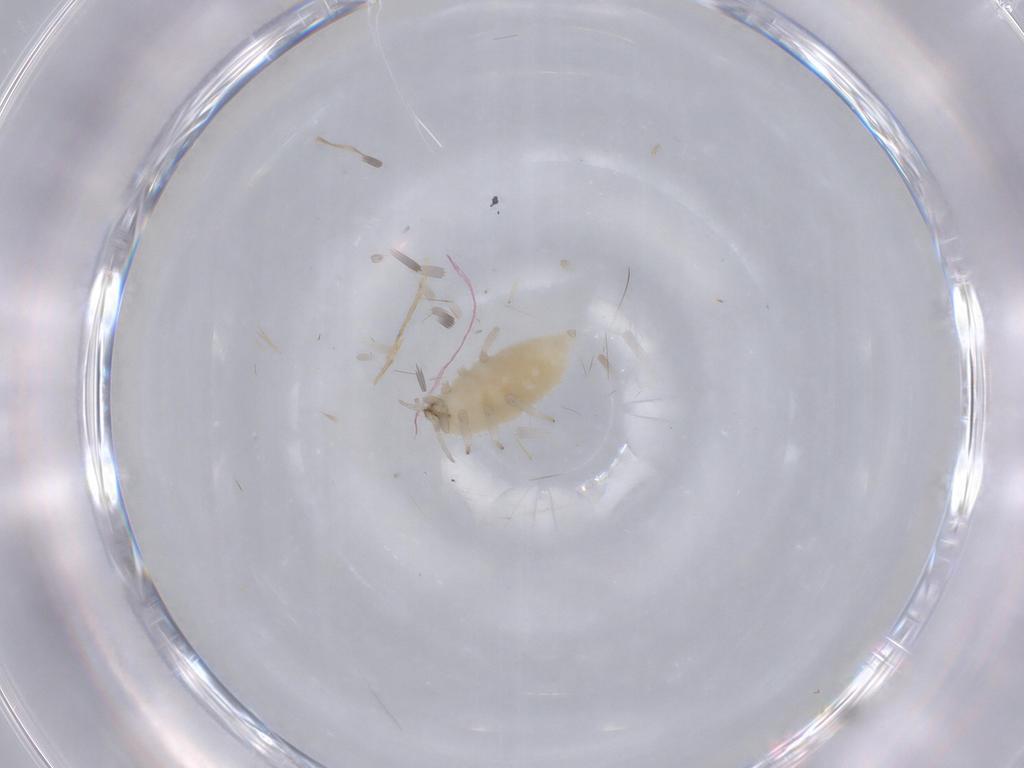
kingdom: Animalia
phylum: Arthropoda
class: Insecta
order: Neuroptera
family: Coniopterygidae
